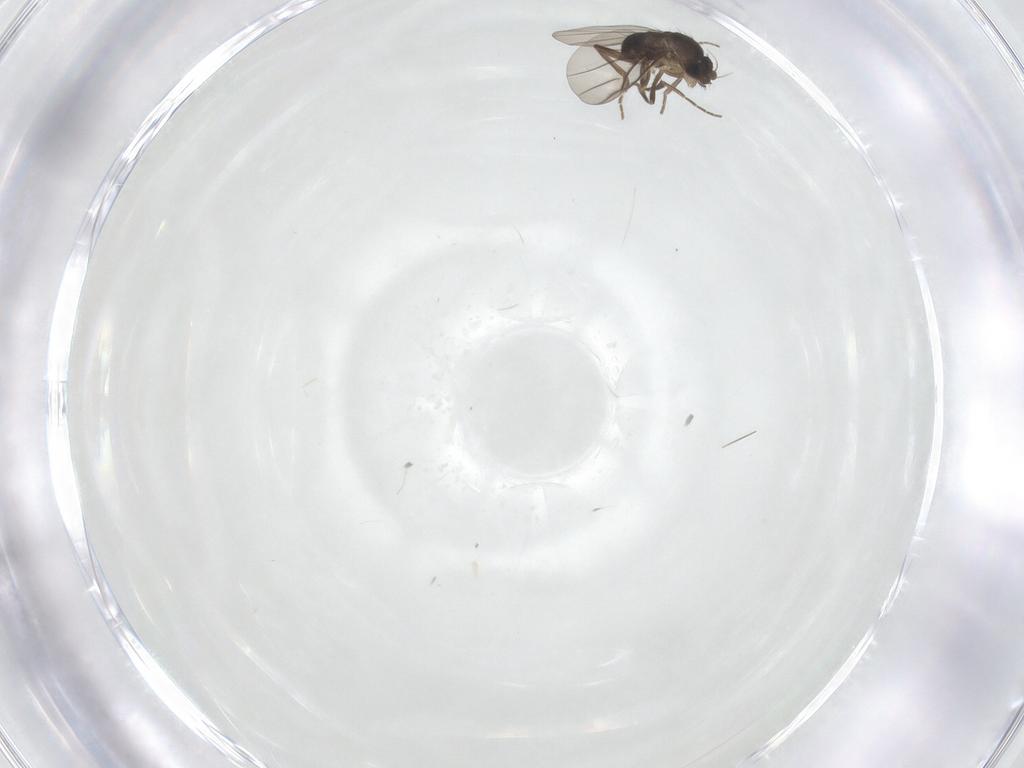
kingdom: Animalia
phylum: Arthropoda
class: Insecta
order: Diptera
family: Phoridae
